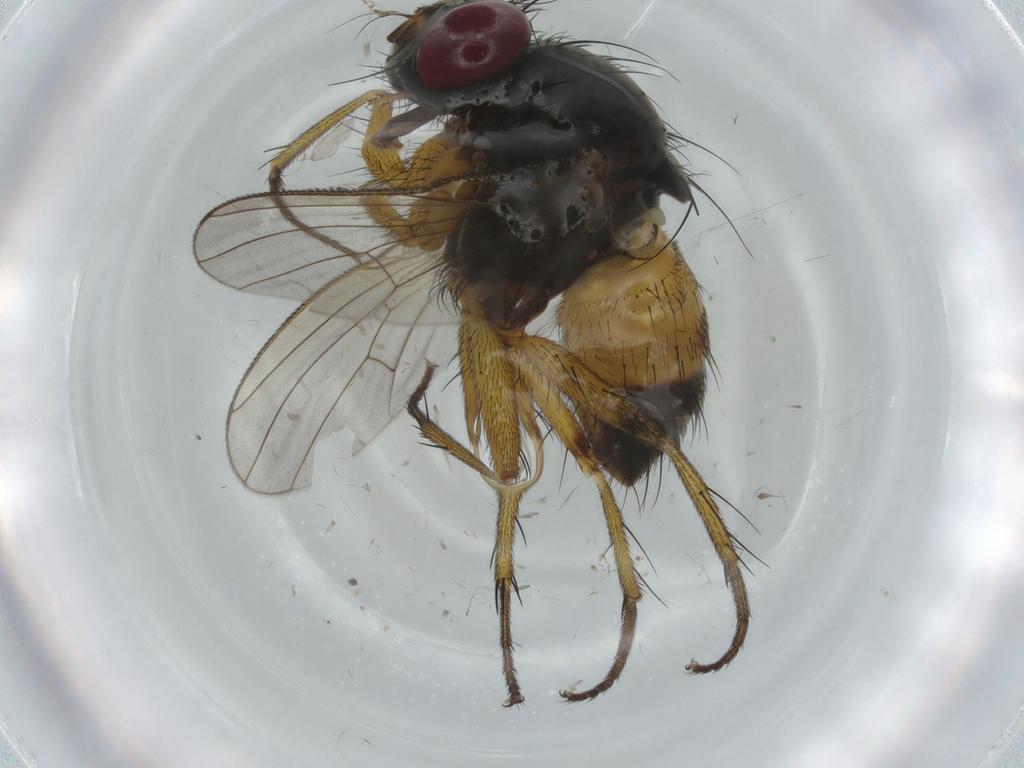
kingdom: Animalia
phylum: Arthropoda
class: Insecta
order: Diptera
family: Muscidae
